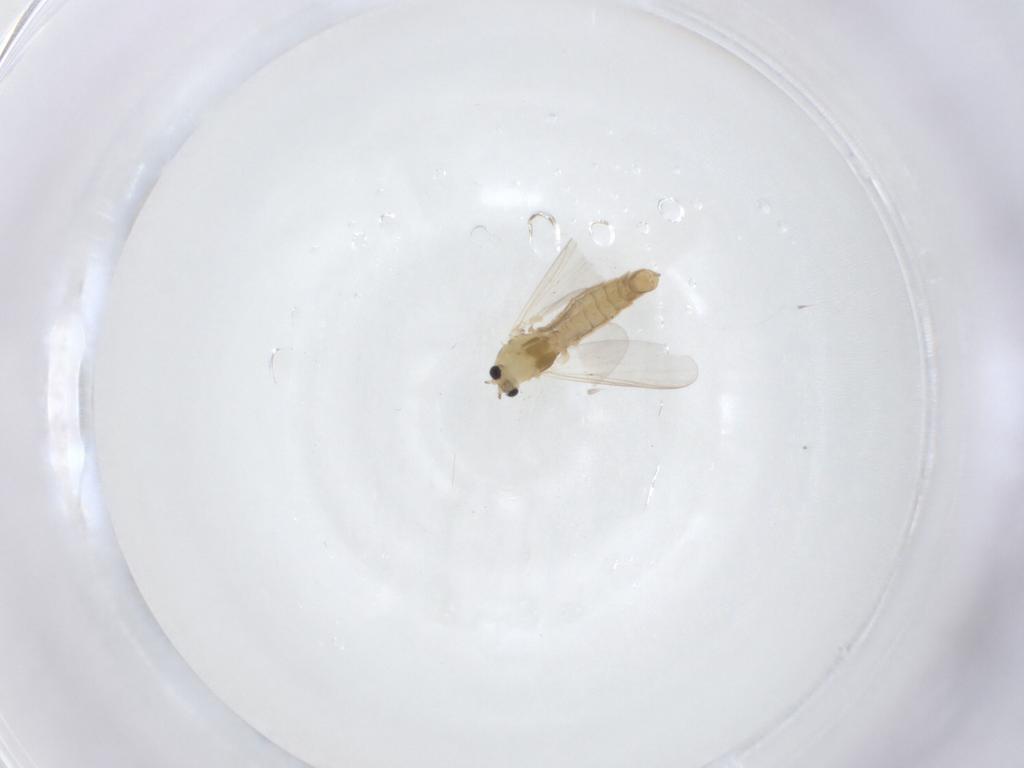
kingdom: Animalia
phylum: Arthropoda
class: Insecta
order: Diptera
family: Chironomidae
